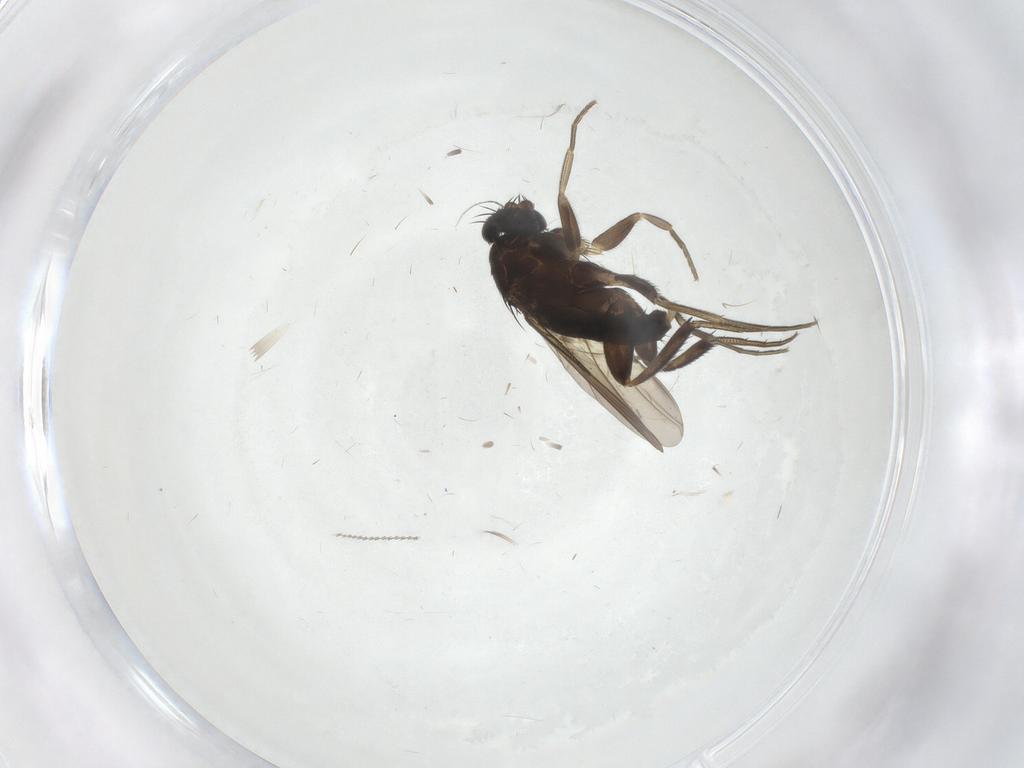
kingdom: Animalia
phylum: Arthropoda
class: Insecta
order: Diptera
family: Phoridae
